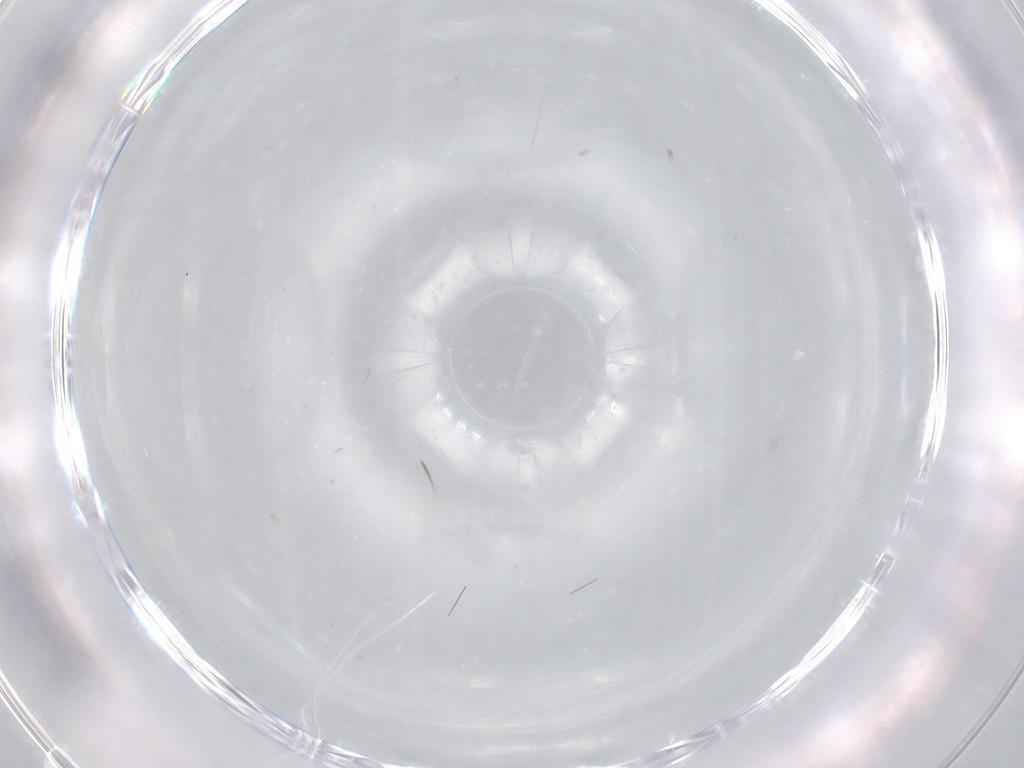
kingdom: Animalia
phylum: Arthropoda
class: Insecta
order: Diptera
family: Chironomidae
